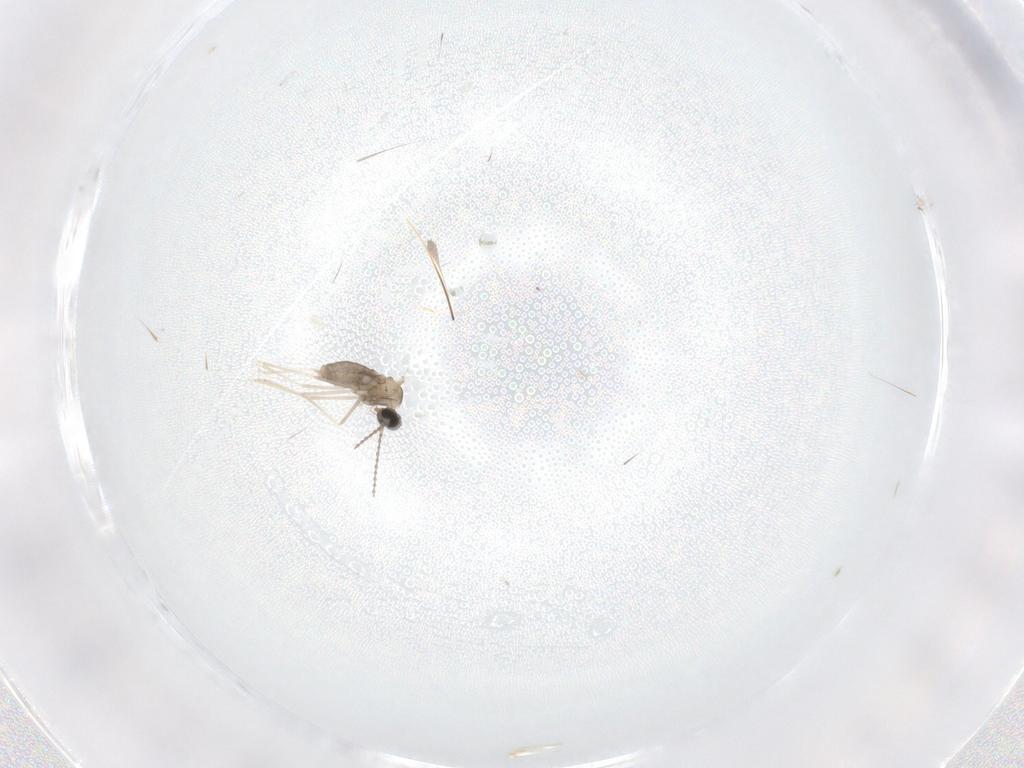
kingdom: Animalia
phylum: Arthropoda
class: Insecta
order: Diptera
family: Cecidomyiidae
